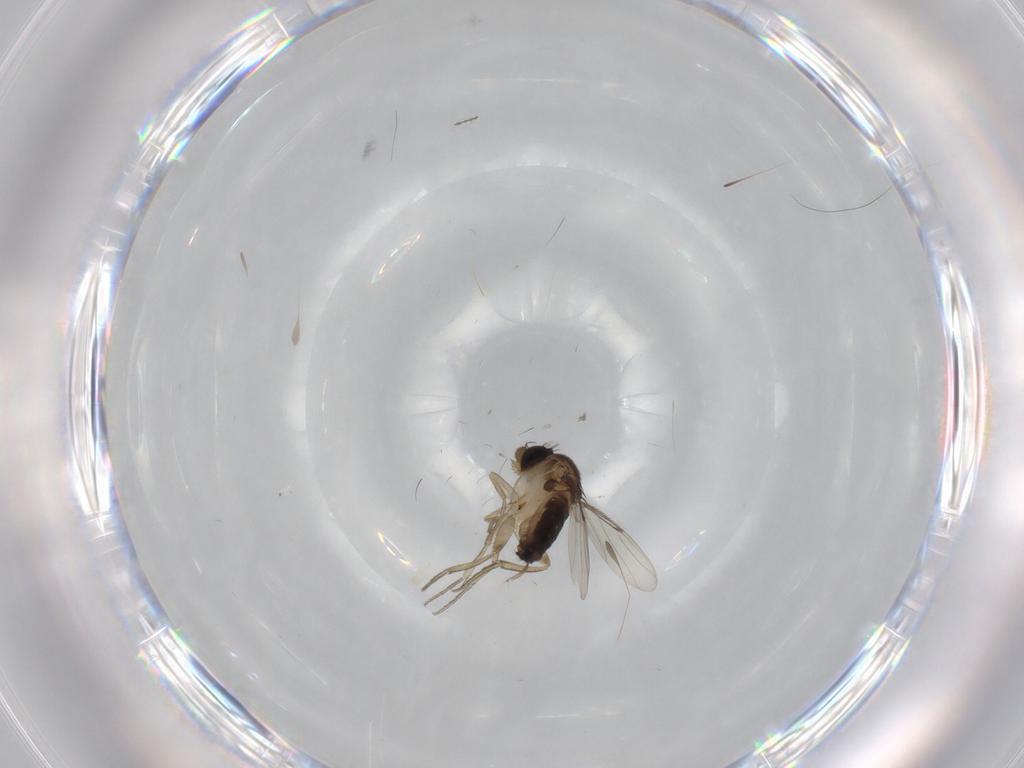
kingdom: Animalia
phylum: Arthropoda
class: Insecta
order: Diptera
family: Chironomidae
